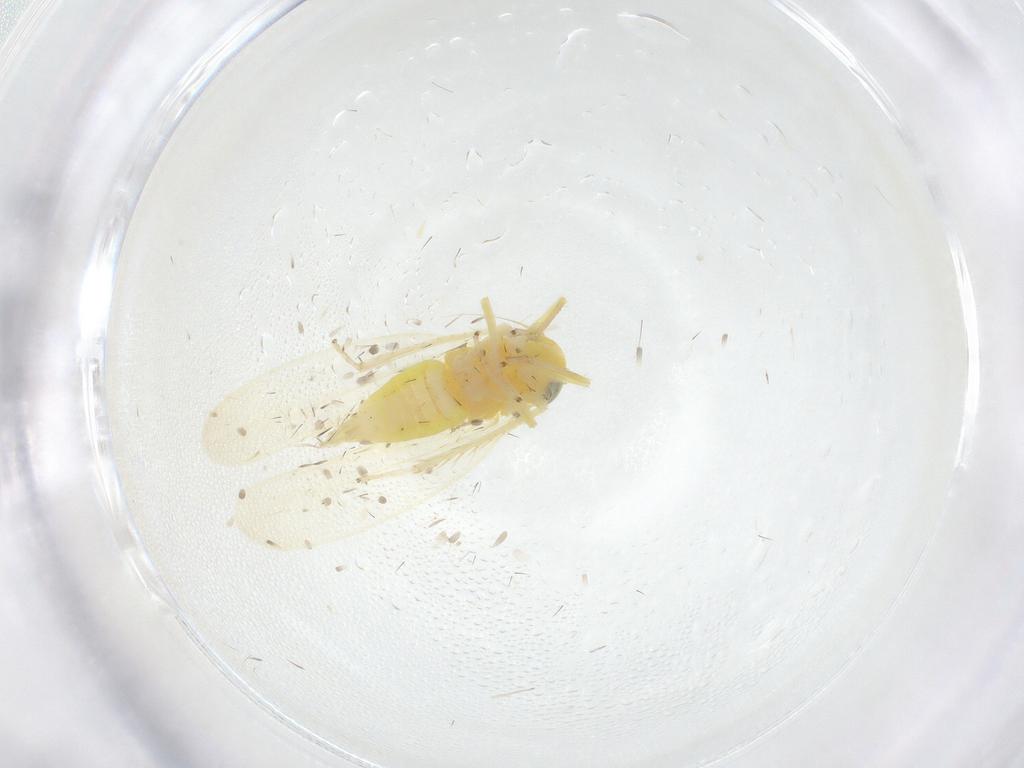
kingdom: Animalia
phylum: Arthropoda
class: Insecta
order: Hemiptera
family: Cicadellidae
